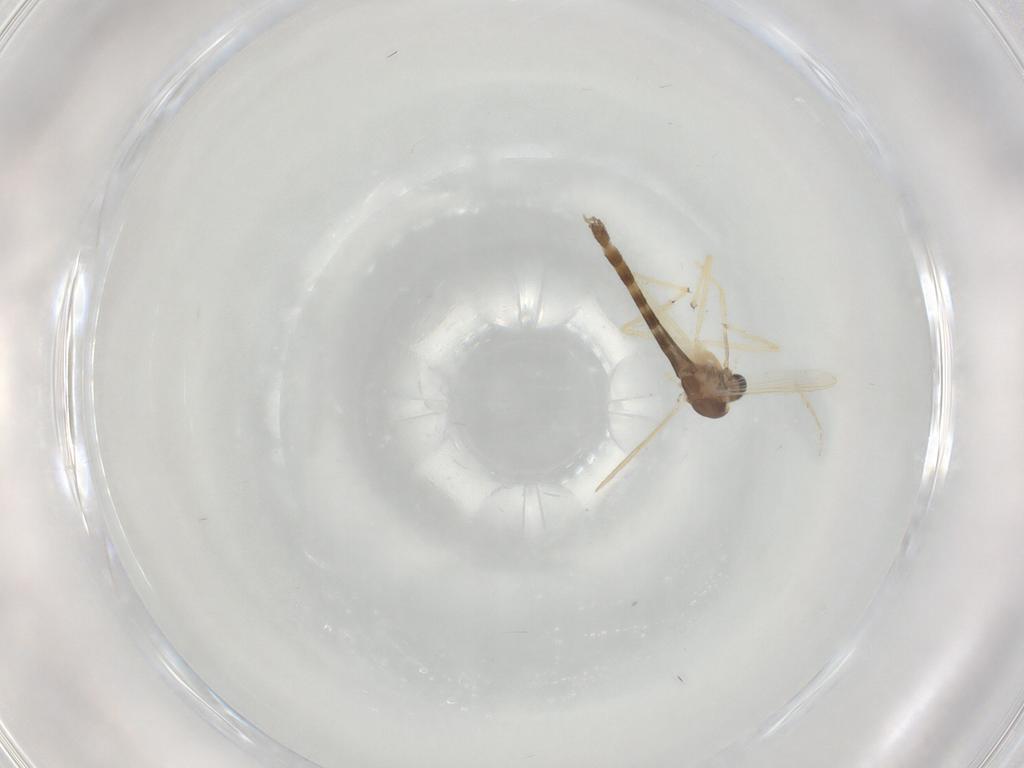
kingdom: Animalia
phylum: Arthropoda
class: Insecta
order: Diptera
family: Chironomidae
